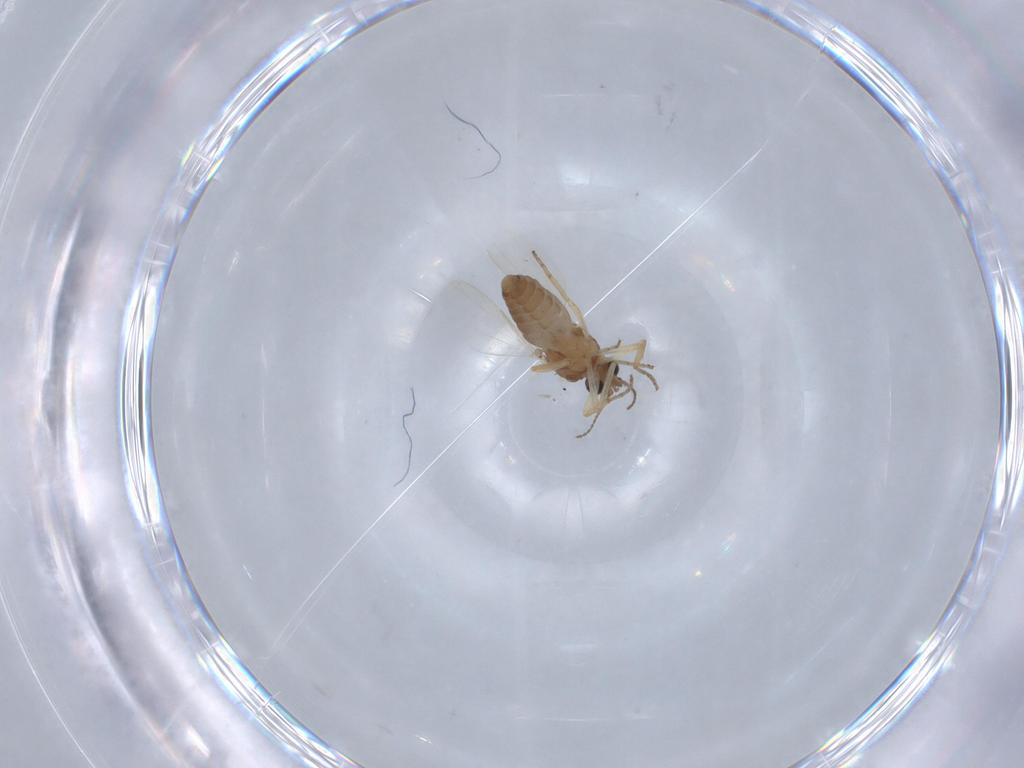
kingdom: Animalia
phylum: Arthropoda
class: Insecta
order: Diptera
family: Ceratopogonidae
